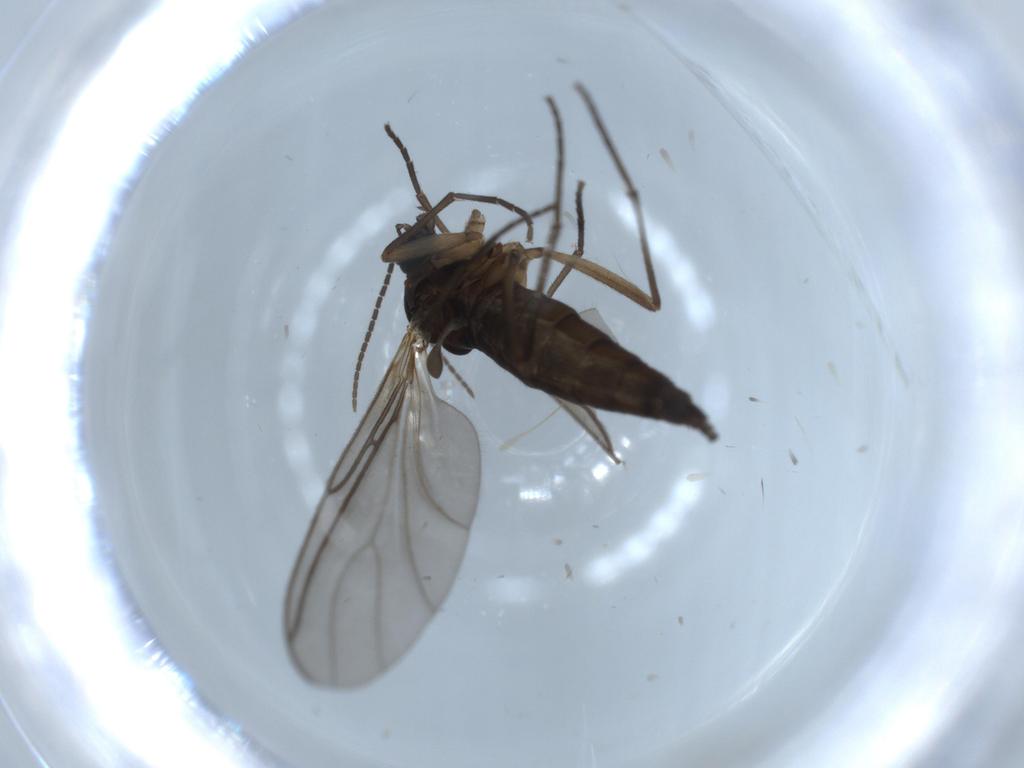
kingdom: Animalia
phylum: Arthropoda
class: Insecta
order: Diptera
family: Sciaridae
